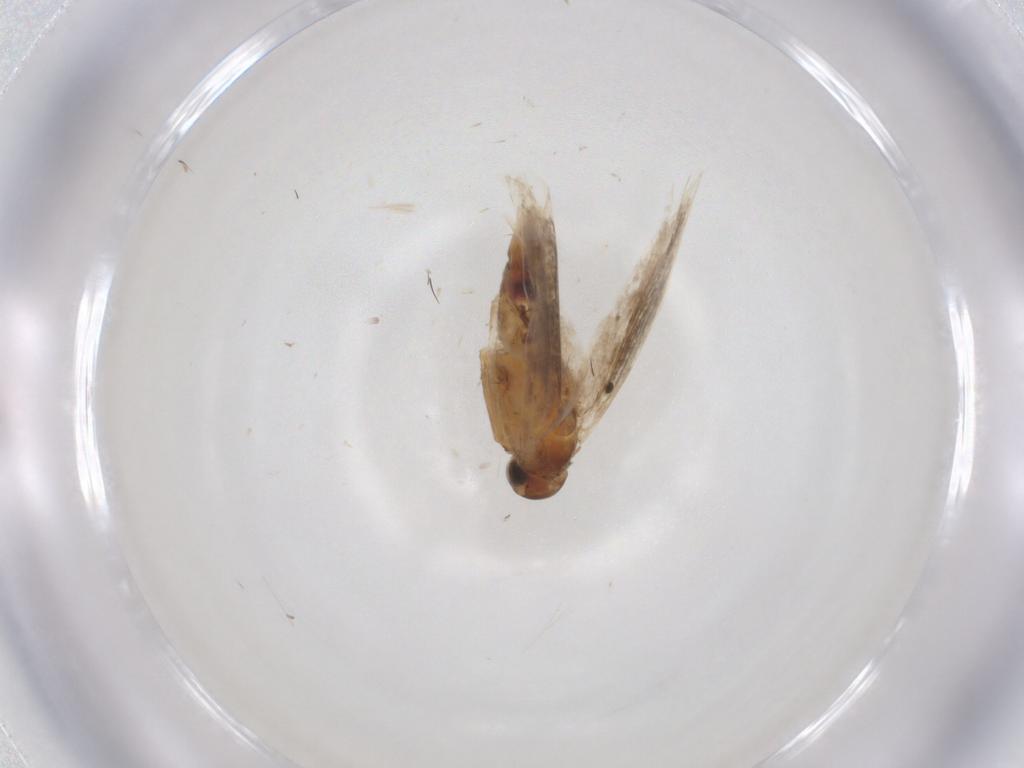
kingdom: Animalia
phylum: Arthropoda
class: Insecta
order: Lepidoptera
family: Gelechiidae
